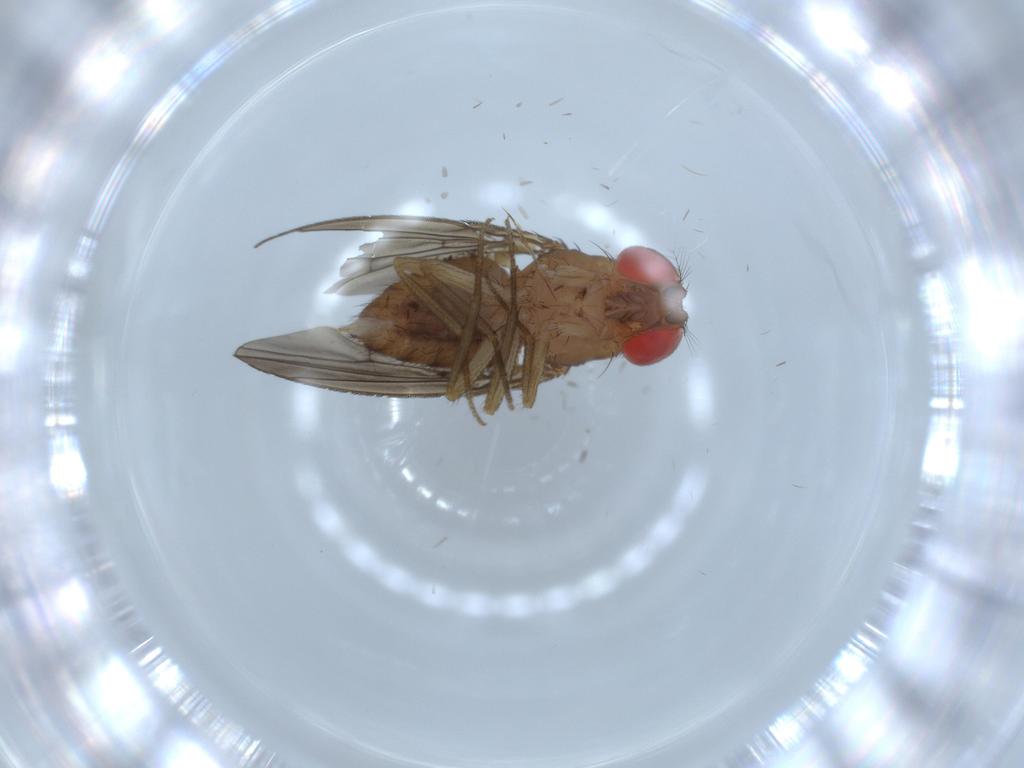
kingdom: Animalia
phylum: Arthropoda
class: Insecta
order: Diptera
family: Drosophilidae
